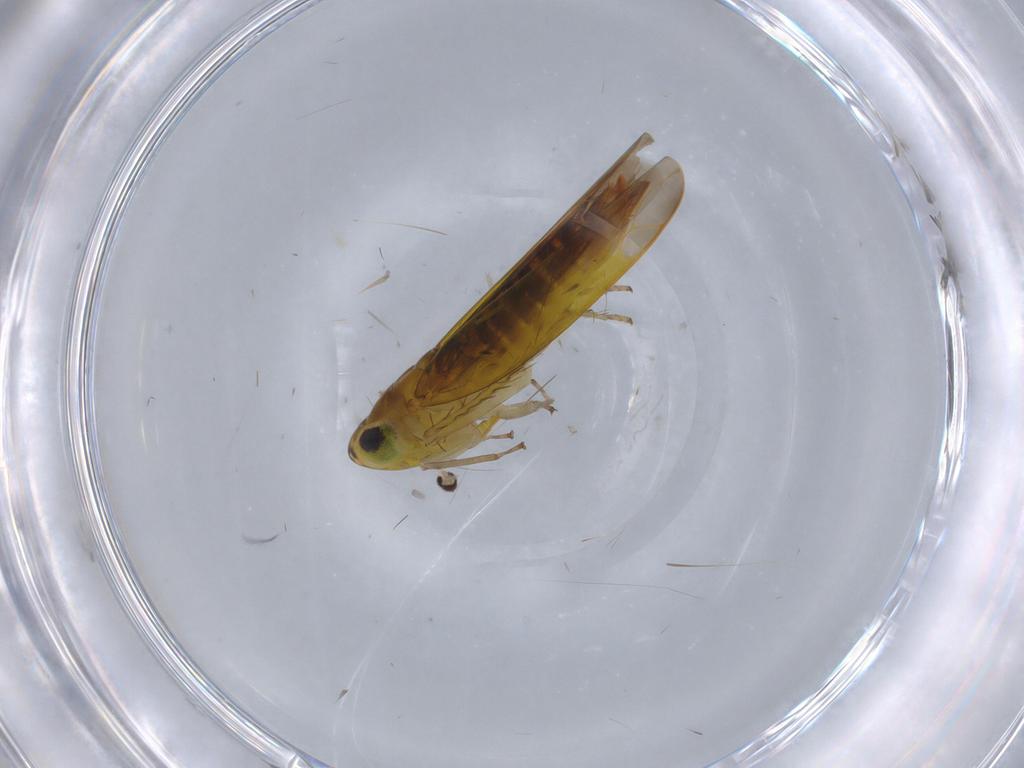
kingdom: Animalia
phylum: Arthropoda
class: Insecta
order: Hemiptera
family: Cicadellidae
